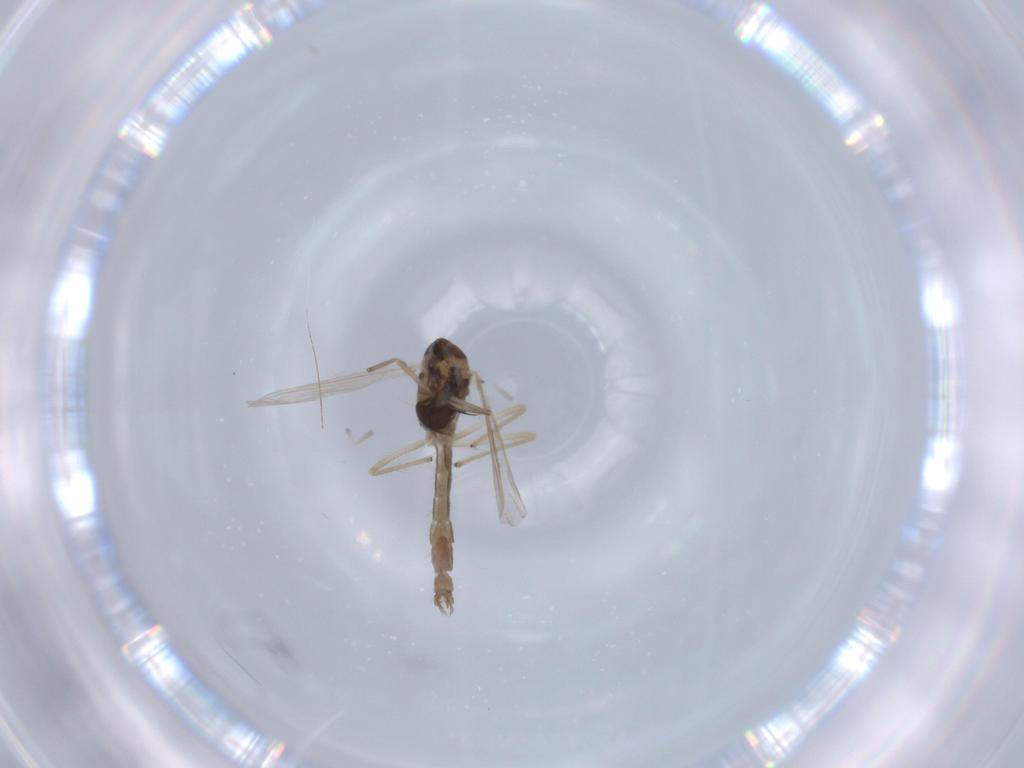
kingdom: Animalia
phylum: Arthropoda
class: Insecta
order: Diptera
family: Chironomidae
